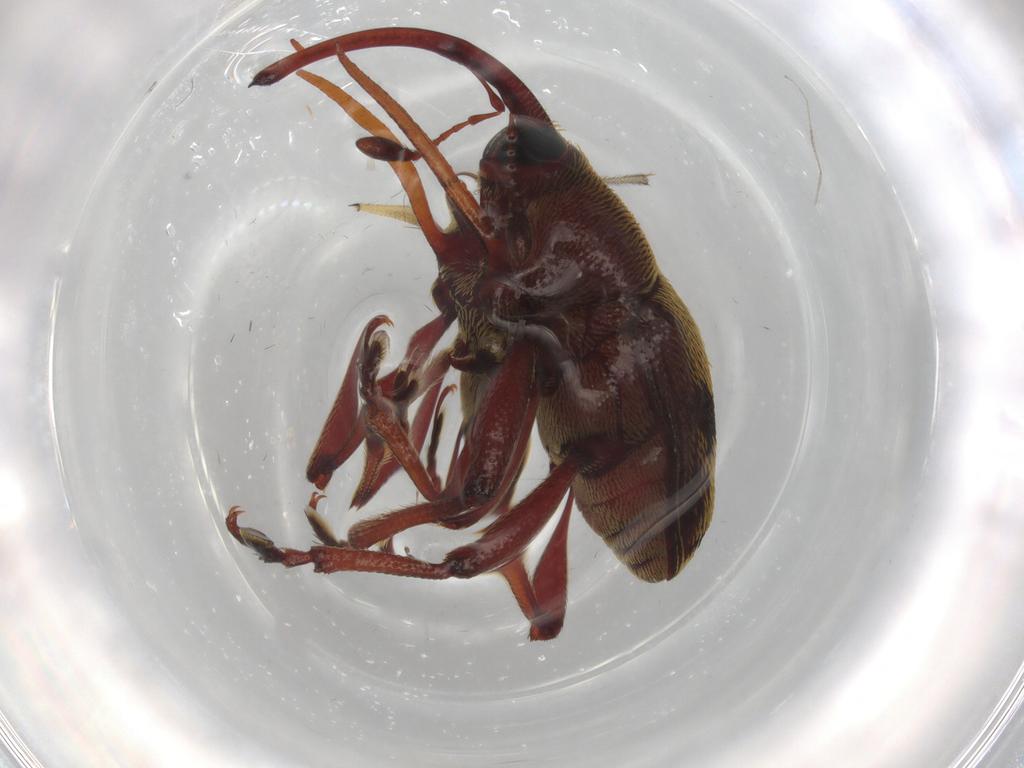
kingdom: Animalia
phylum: Arthropoda
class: Insecta
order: Coleoptera
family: Curculionidae
